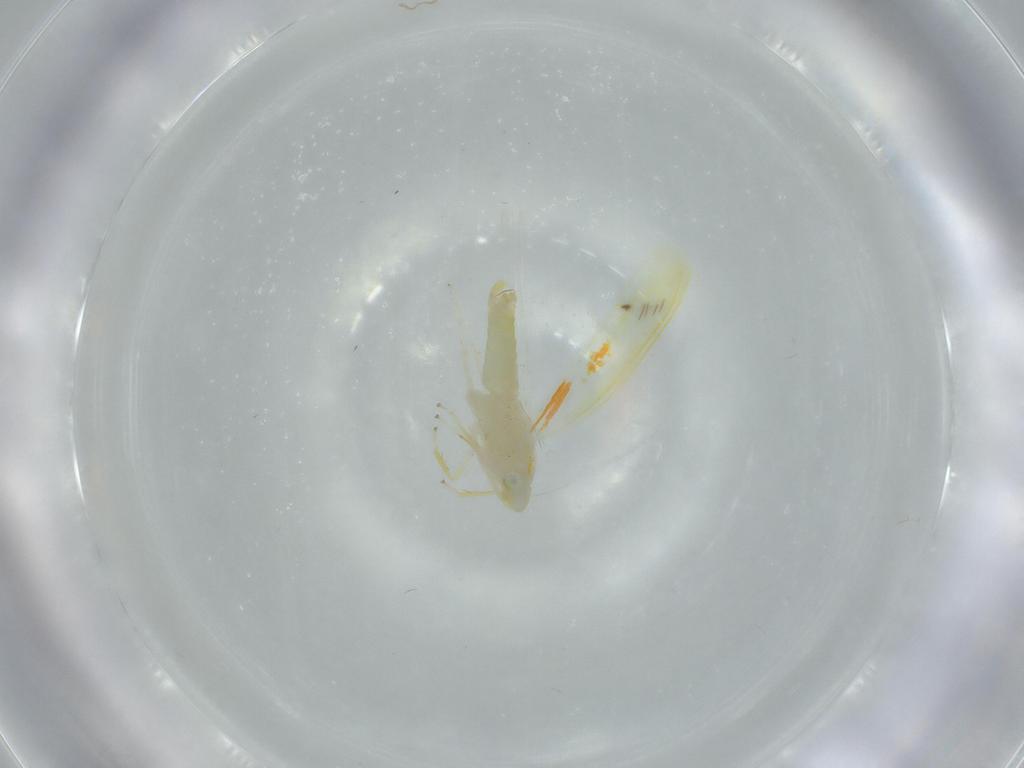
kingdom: Animalia
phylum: Arthropoda
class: Insecta
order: Hemiptera
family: Cicadellidae
